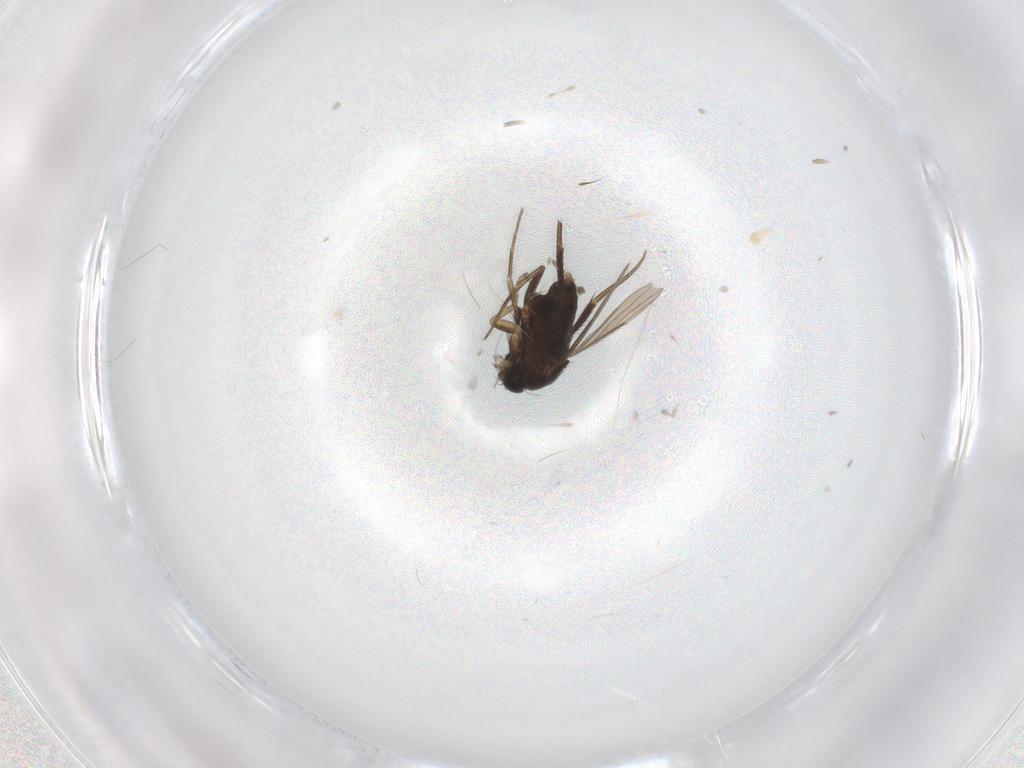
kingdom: Animalia
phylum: Arthropoda
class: Insecta
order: Diptera
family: Phoridae
